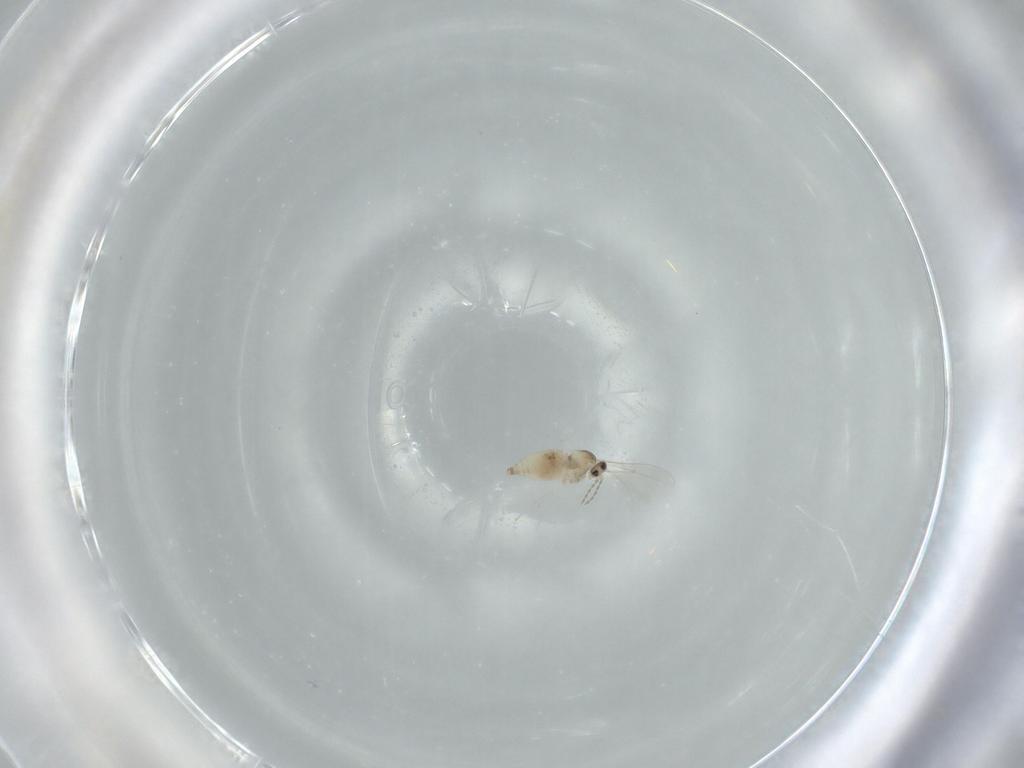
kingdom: Animalia
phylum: Arthropoda
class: Insecta
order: Diptera
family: Cecidomyiidae
